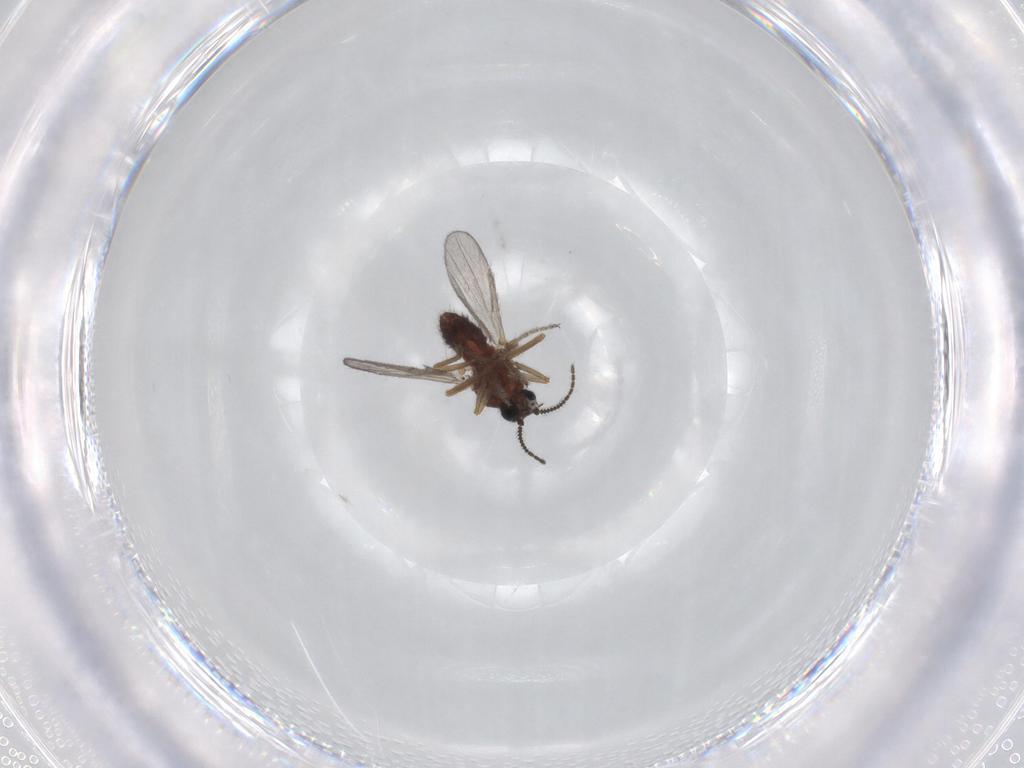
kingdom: Animalia
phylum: Arthropoda
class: Insecta
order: Diptera
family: Ceratopogonidae
